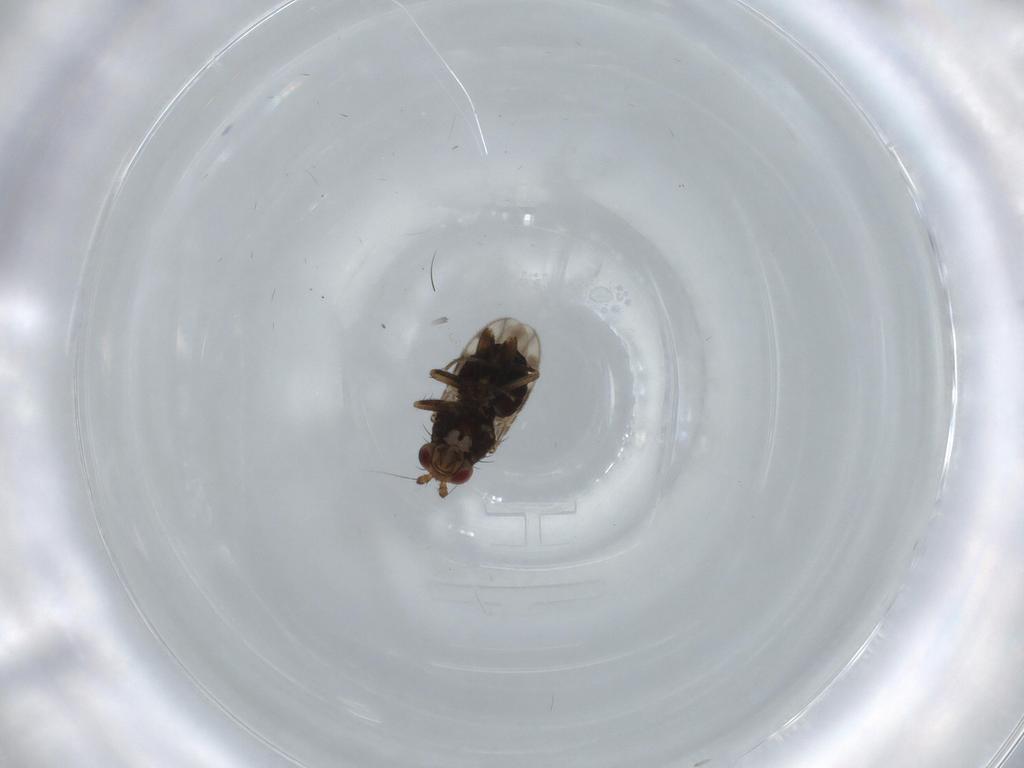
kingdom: Animalia
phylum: Arthropoda
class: Insecta
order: Diptera
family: Sphaeroceridae
